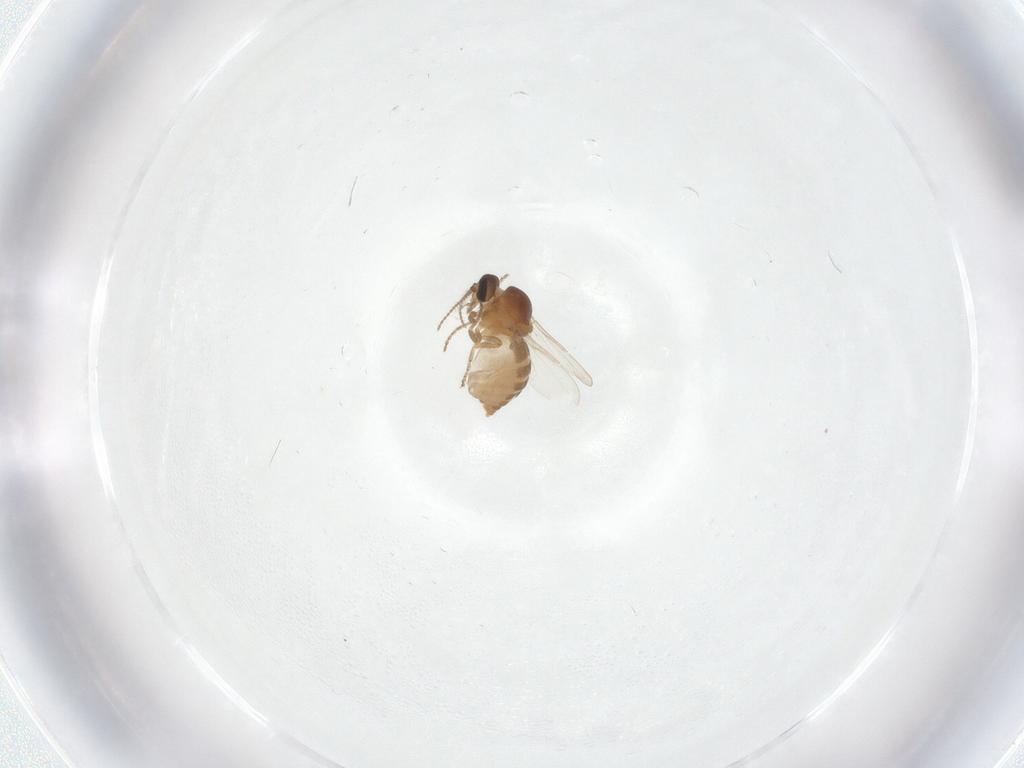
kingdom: Animalia
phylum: Arthropoda
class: Insecta
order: Diptera
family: Ceratopogonidae
